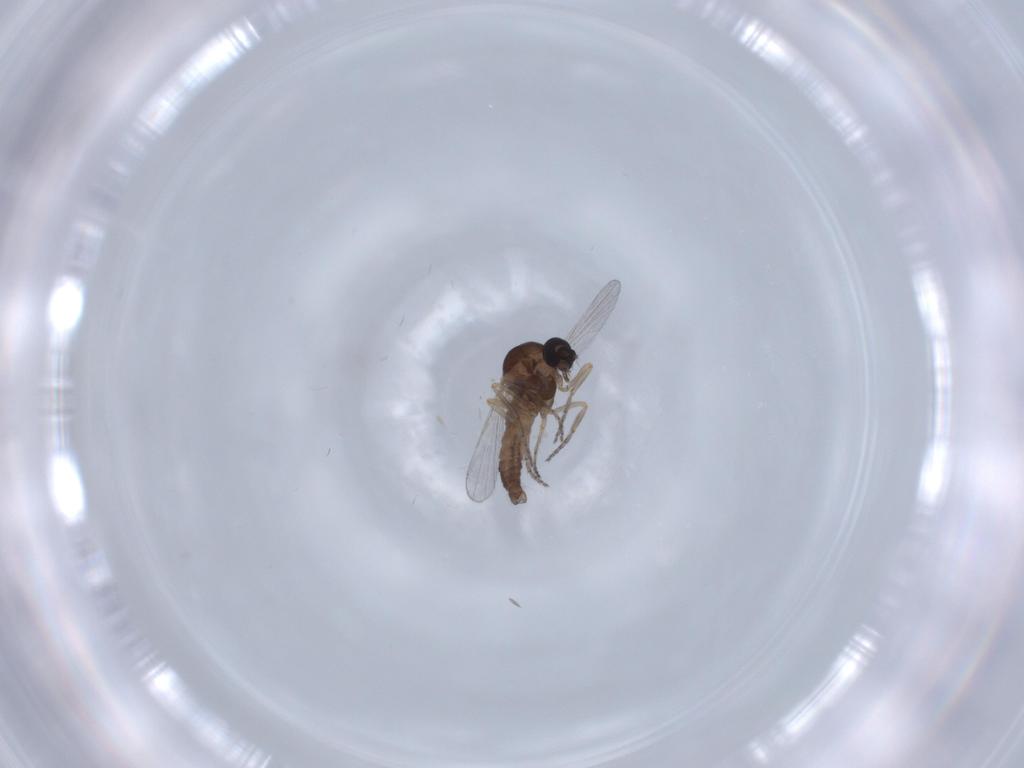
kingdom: Animalia
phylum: Arthropoda
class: Insecta
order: Diptera
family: Ceratopogonidae
